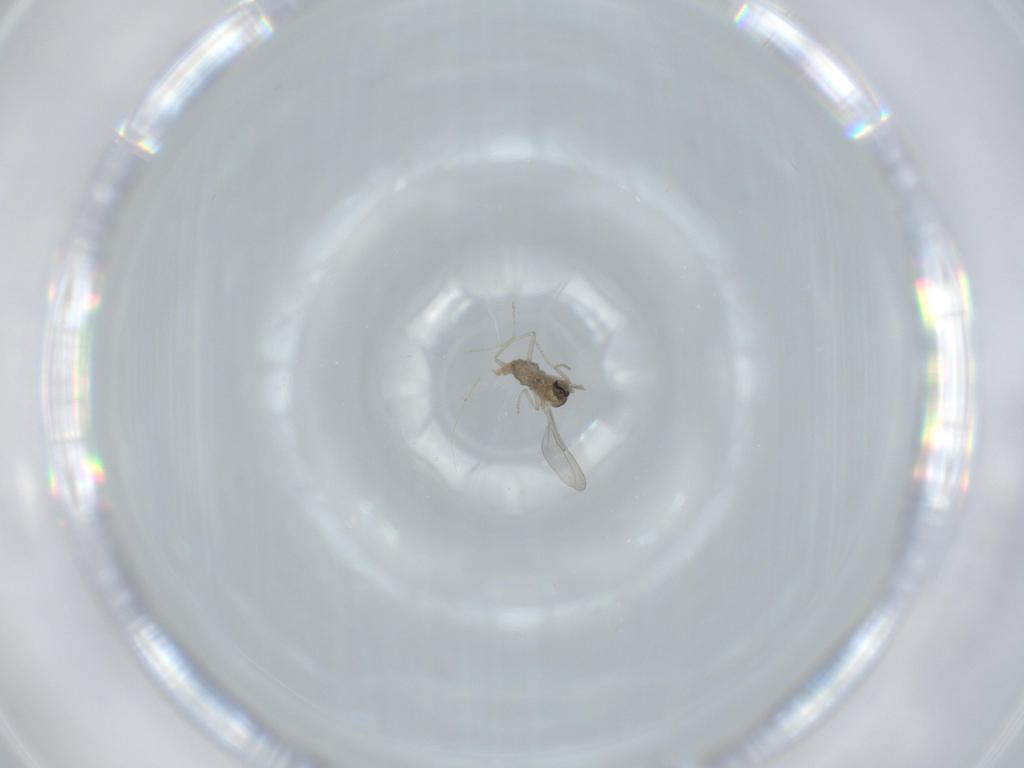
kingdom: Animalia
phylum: Arthropoda
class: Insecta
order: Diptera
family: Cecidomyiidae
